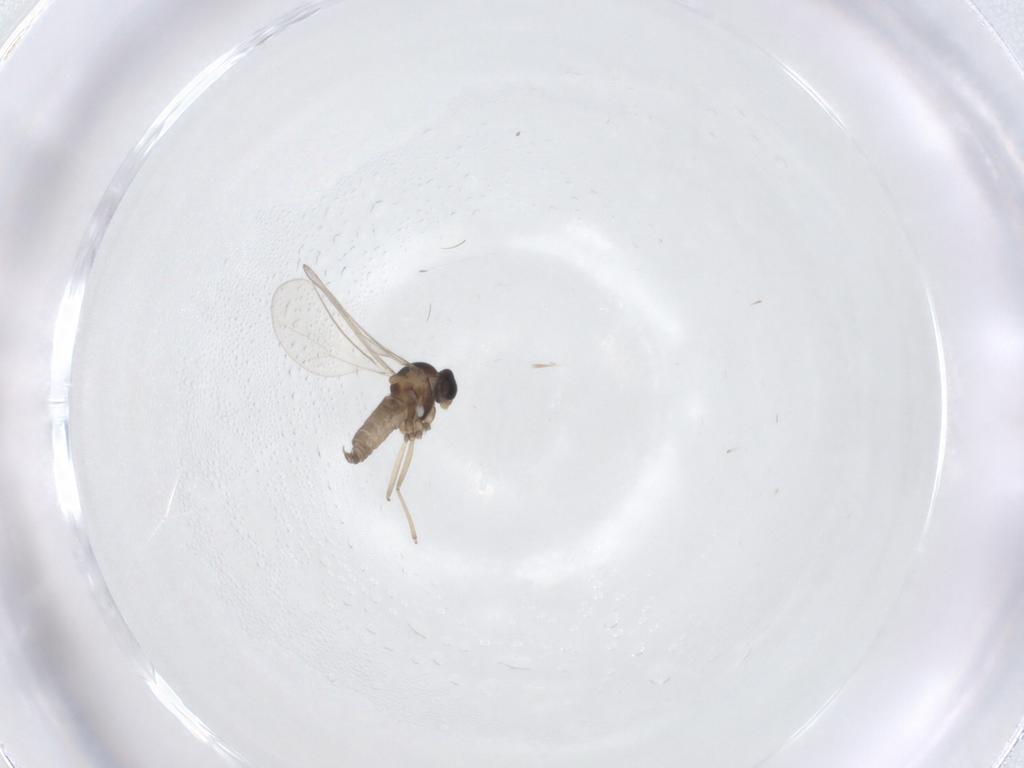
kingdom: Animalia
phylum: Arthropoda
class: Insecta
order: Diptera
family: Cecidomyiidae
